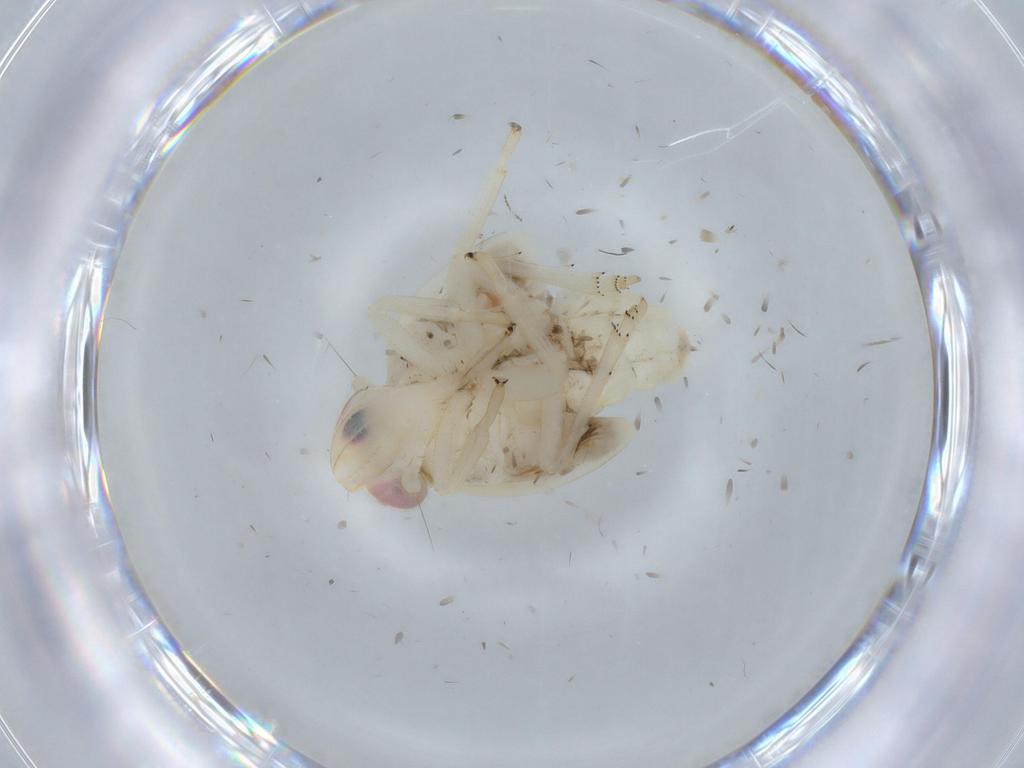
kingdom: Animalia
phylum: Arthropoda
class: Insecta
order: Hemiptera
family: Nogodinidae
